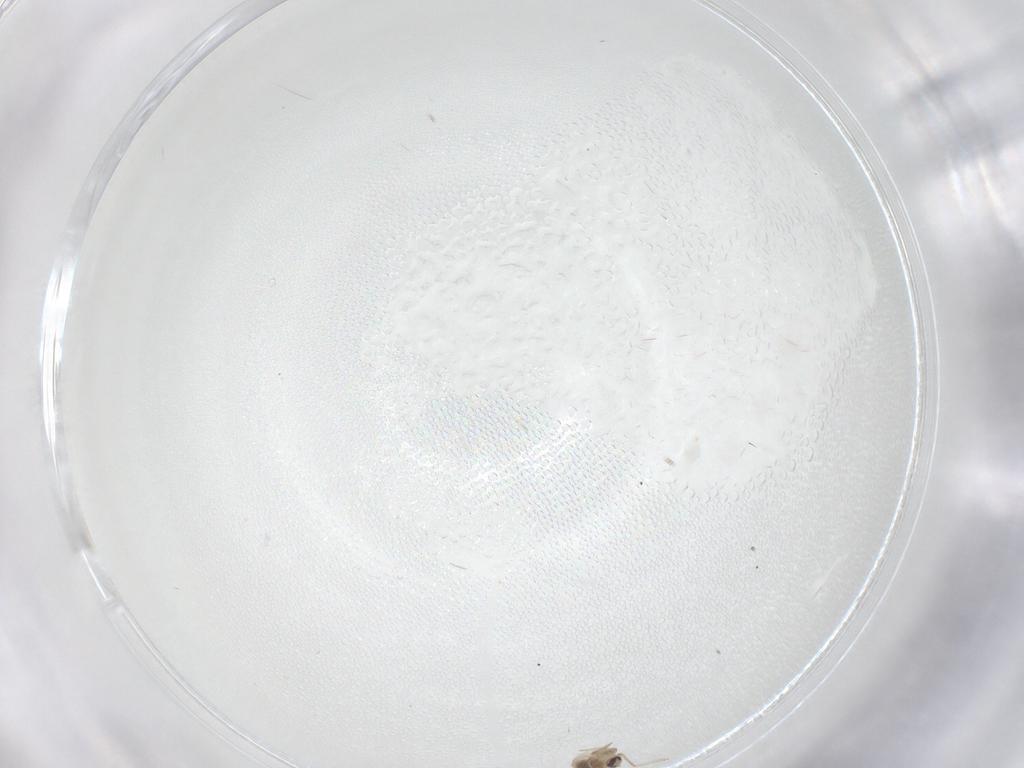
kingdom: Animalia
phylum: Arthropoda
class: Insecta
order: Diptera
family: Cecidomyiidae
